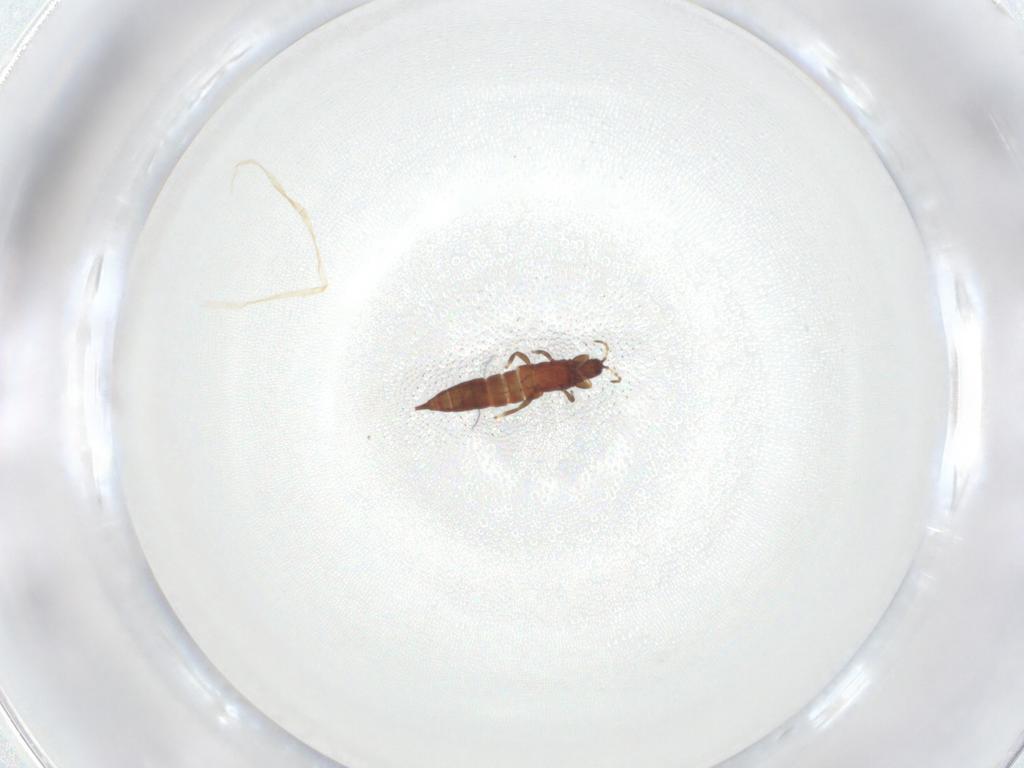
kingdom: Animalia
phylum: Arthropoda
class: Insecta
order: Thysanoptera
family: Phlaeothripidae
